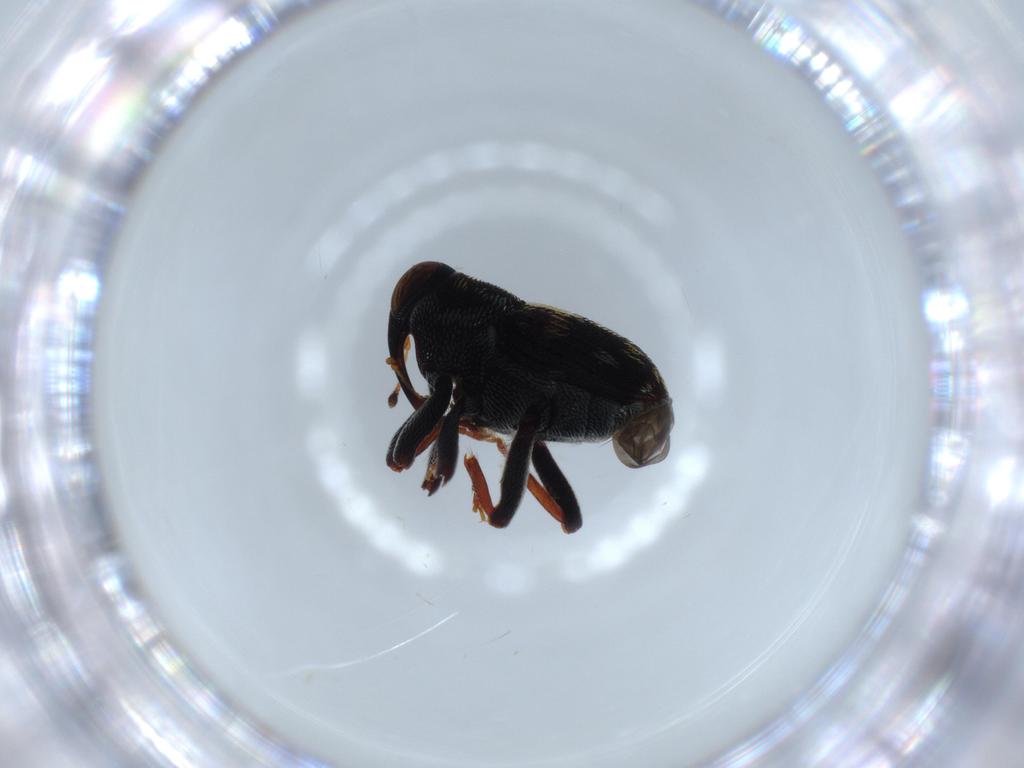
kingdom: Animalia
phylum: Arthropoda
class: Insecta
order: Coleoptera
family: Curculionidae
